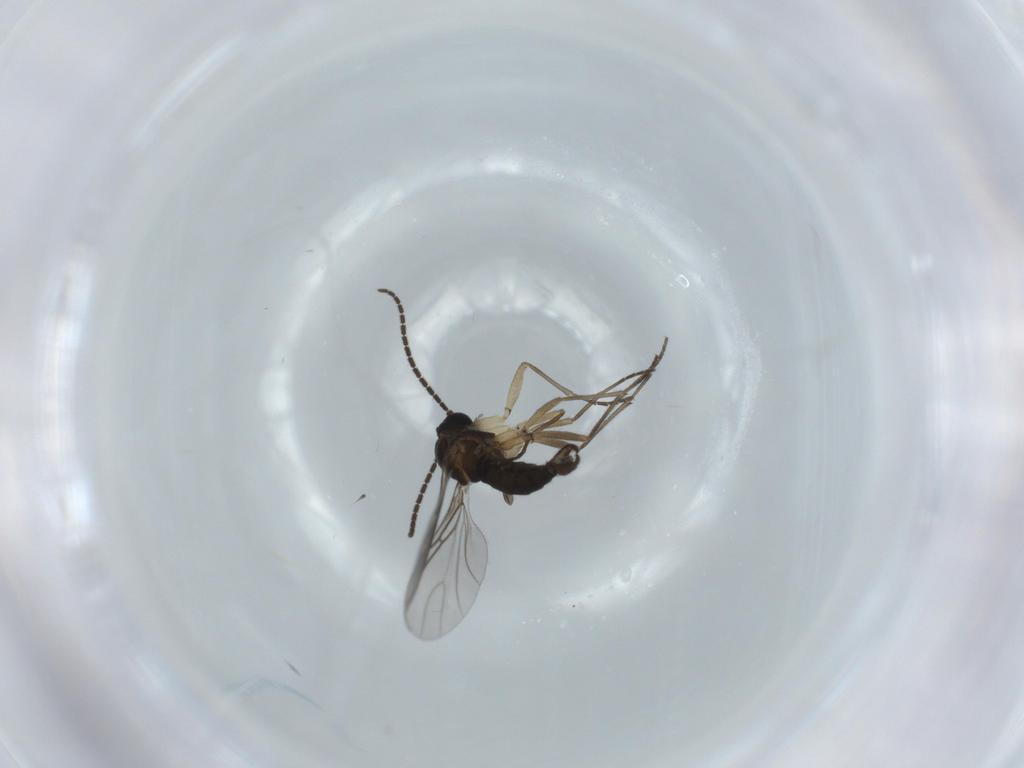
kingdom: Animalia
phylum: Arthropoda
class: Insecta
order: Diptera
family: Sciaridae
